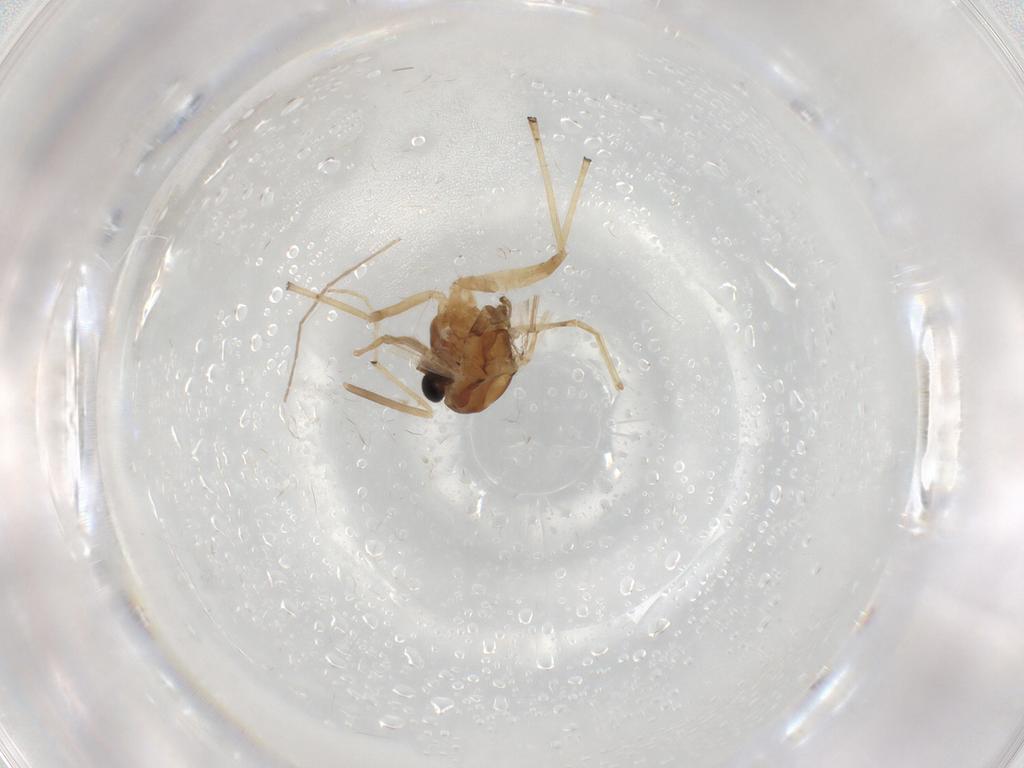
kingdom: Animalia
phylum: Arthropoda
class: Insecta
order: Diptera
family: Chironomidae
